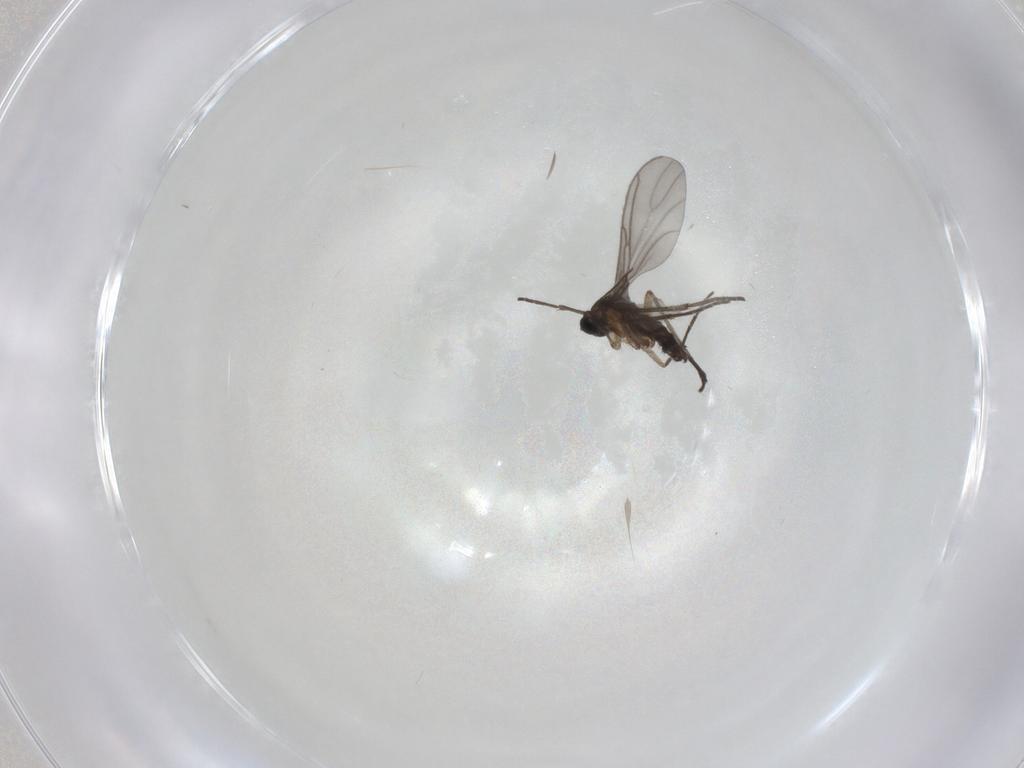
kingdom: Animalia
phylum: Arthropoda
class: Insecta
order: Diptera
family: Sciaridae
